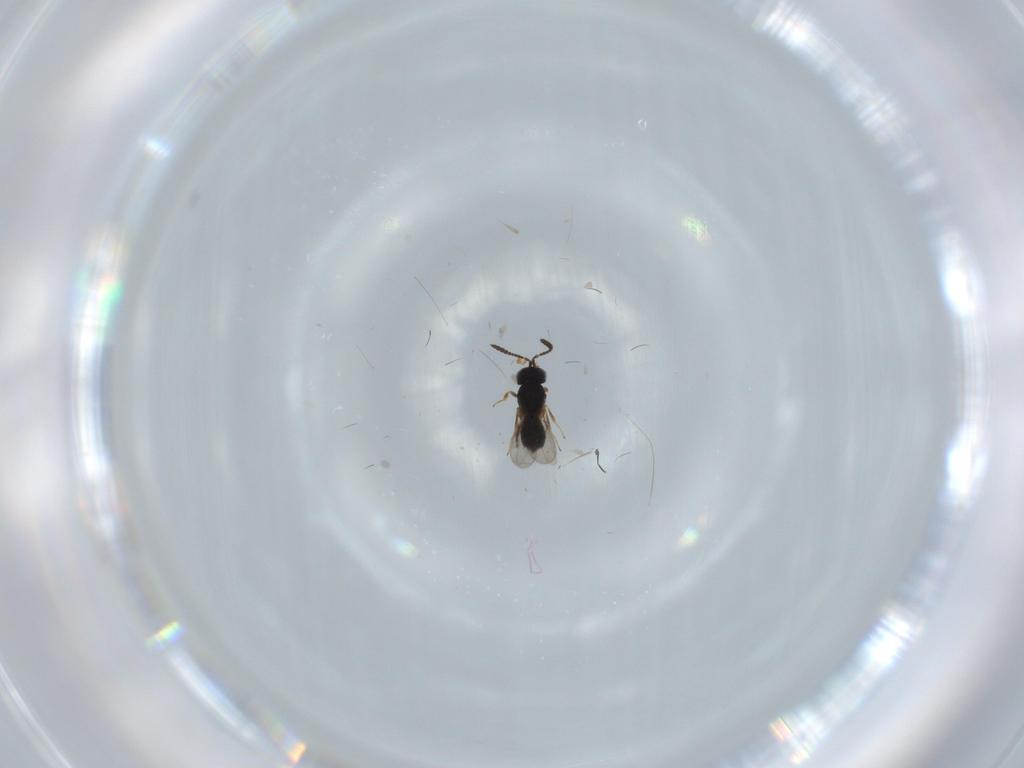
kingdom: Animalia
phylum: Arthropoda
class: Insecta
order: Hymenoptera
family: Scelionidae
